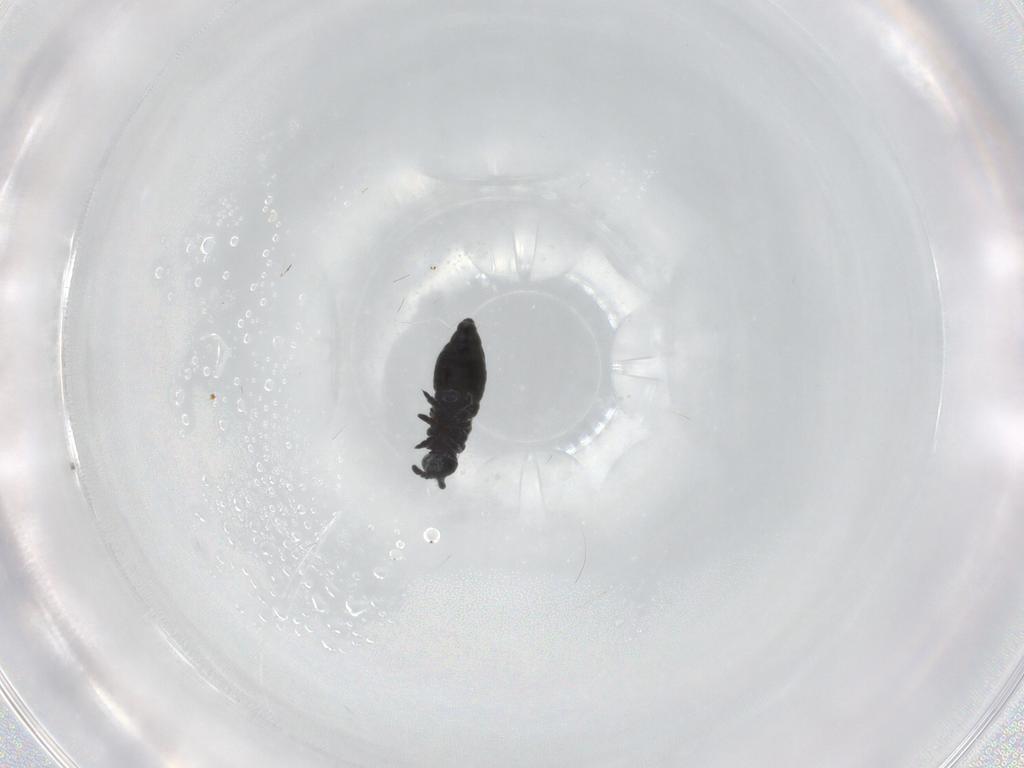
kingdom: Animalia
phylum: Arthropoda
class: Collembola
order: Poduromorpha
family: Hypogastruridae
